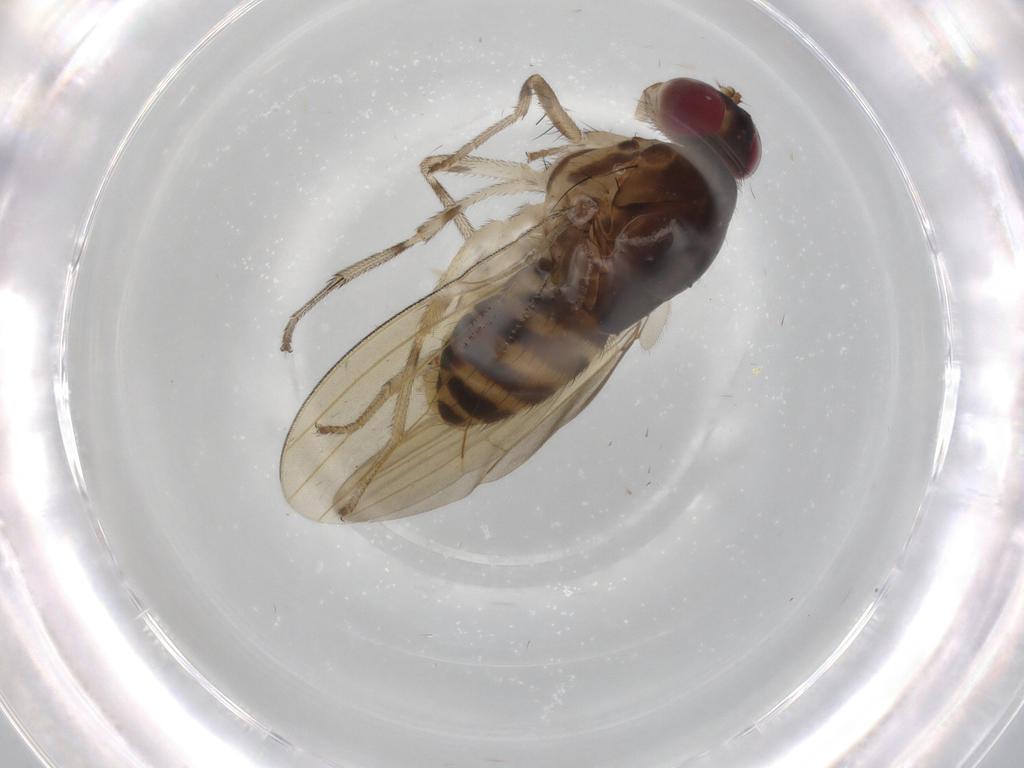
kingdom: Animalia
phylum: Arthropoda
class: Insecta
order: Diptera
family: Lauxaniidae
